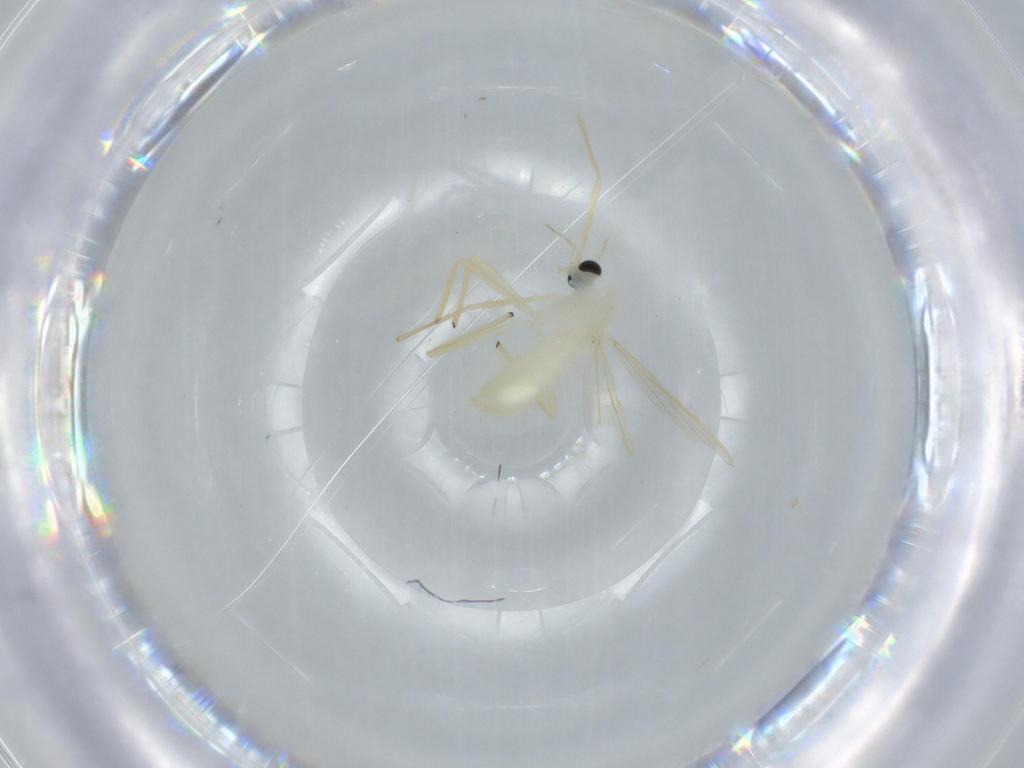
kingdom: Animalia
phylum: Arthropoda
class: Insecta
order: Diptera
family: Chironomidae
